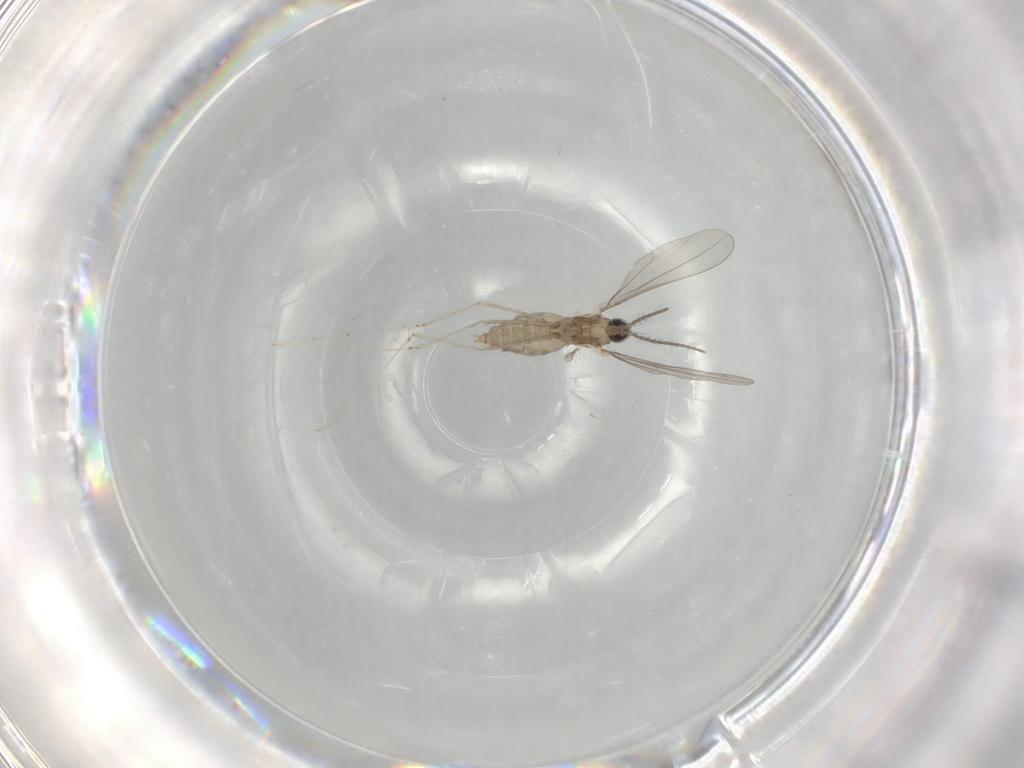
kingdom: Animalia
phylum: Arthropoda
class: Insecta
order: Diptera
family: Cecidomyiidae
